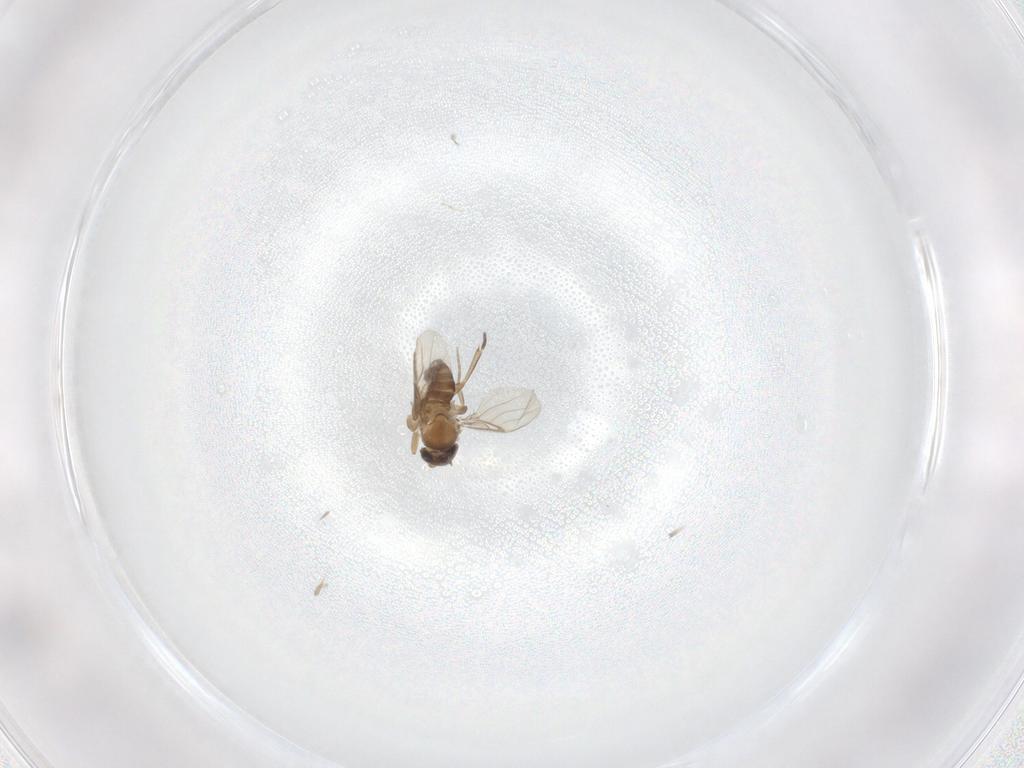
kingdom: Animalia
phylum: Arthropoda
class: Insecta
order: Diptera
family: Phoridae
